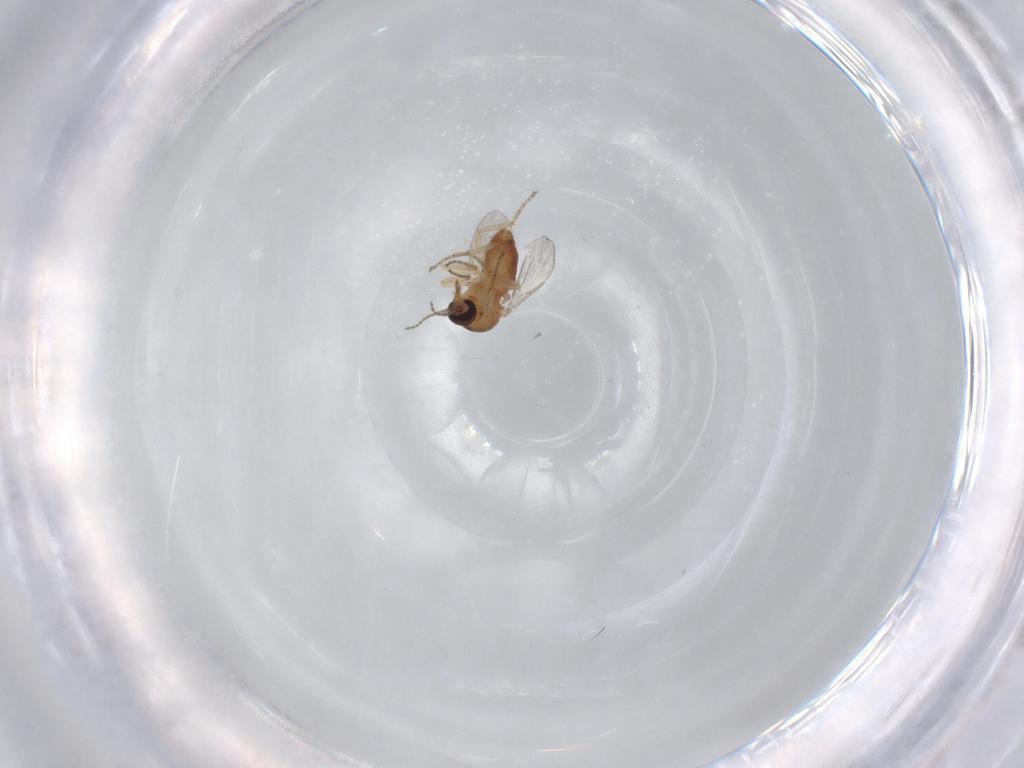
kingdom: Animalia
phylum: Arthropoda
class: Insecta
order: Diptera
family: Ceratopogonidae
